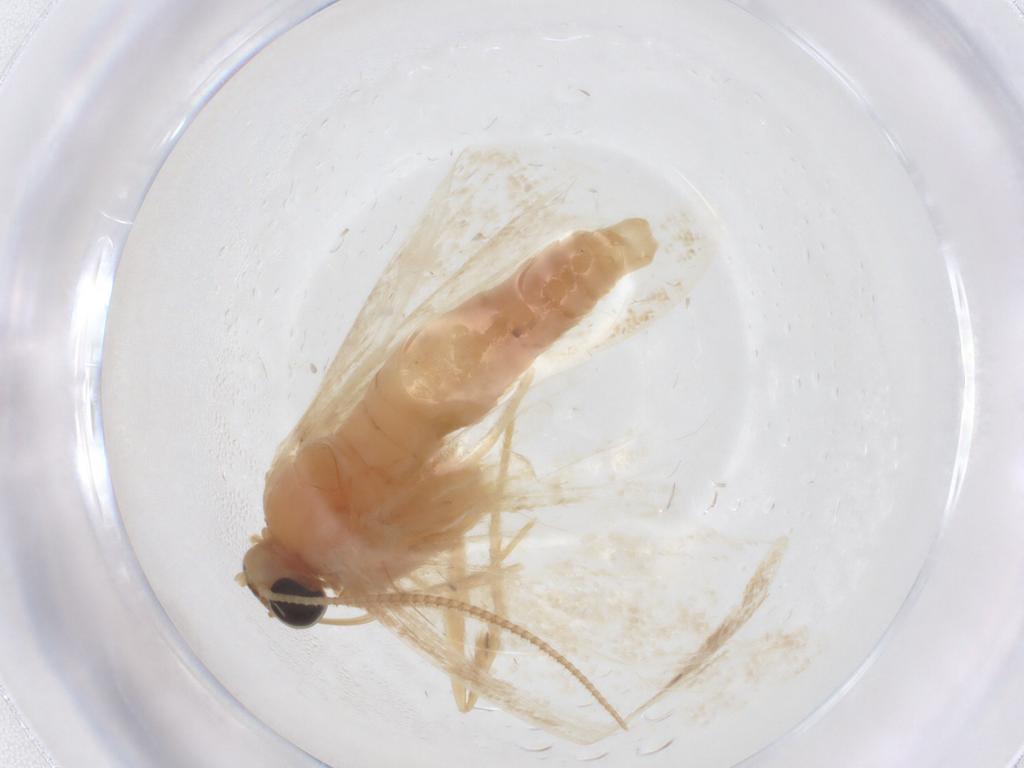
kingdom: Animalia
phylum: Arthropoda
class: Insecta
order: Lepidoptera
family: Geometridae
